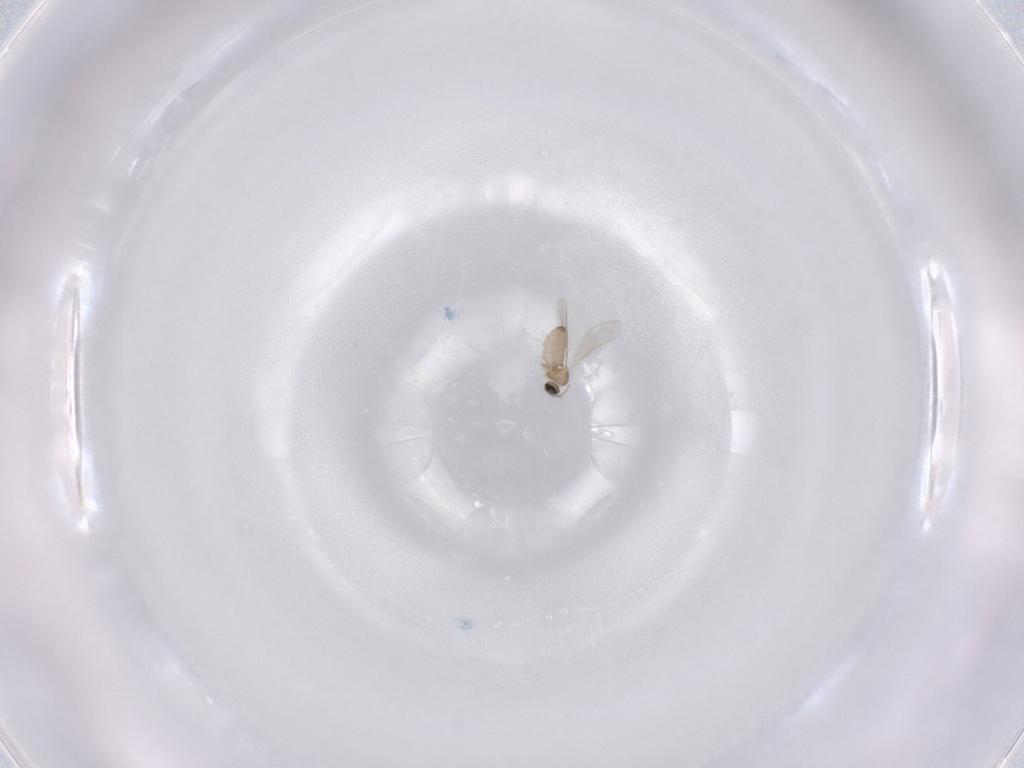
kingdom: Animalia
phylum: Arthropoda
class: Insecta
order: Diptera
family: Cecidomyiidae
